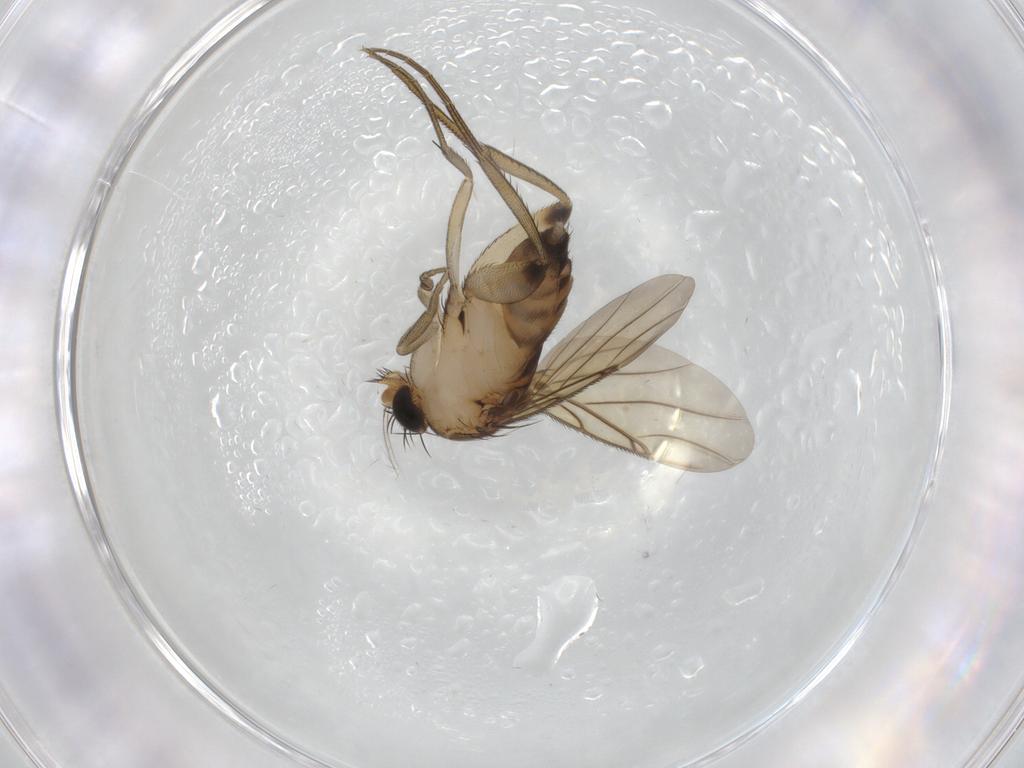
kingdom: Animalia
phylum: Arthropoda
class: Insecta
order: Diptera
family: Phoridae
